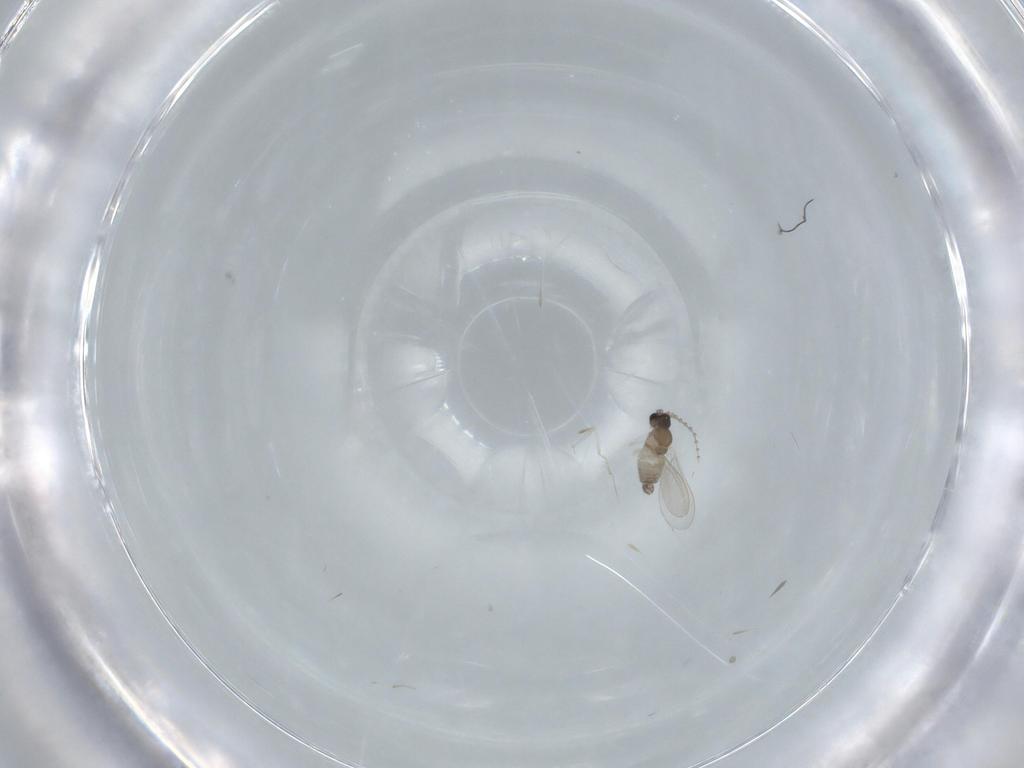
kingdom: Animalia
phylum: Arthropoda
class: Insecta
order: Diptera
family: Cecidomyiidae
